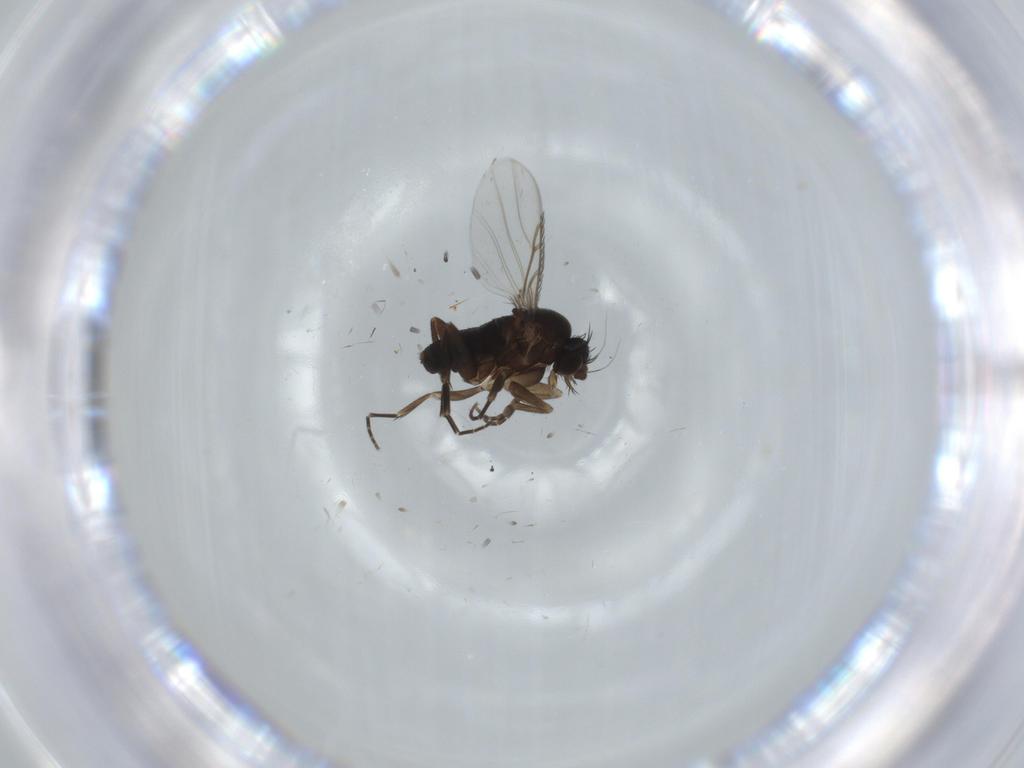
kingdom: Animalia
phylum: Arthropoda
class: Insecta
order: Diptera
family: Phoridae
